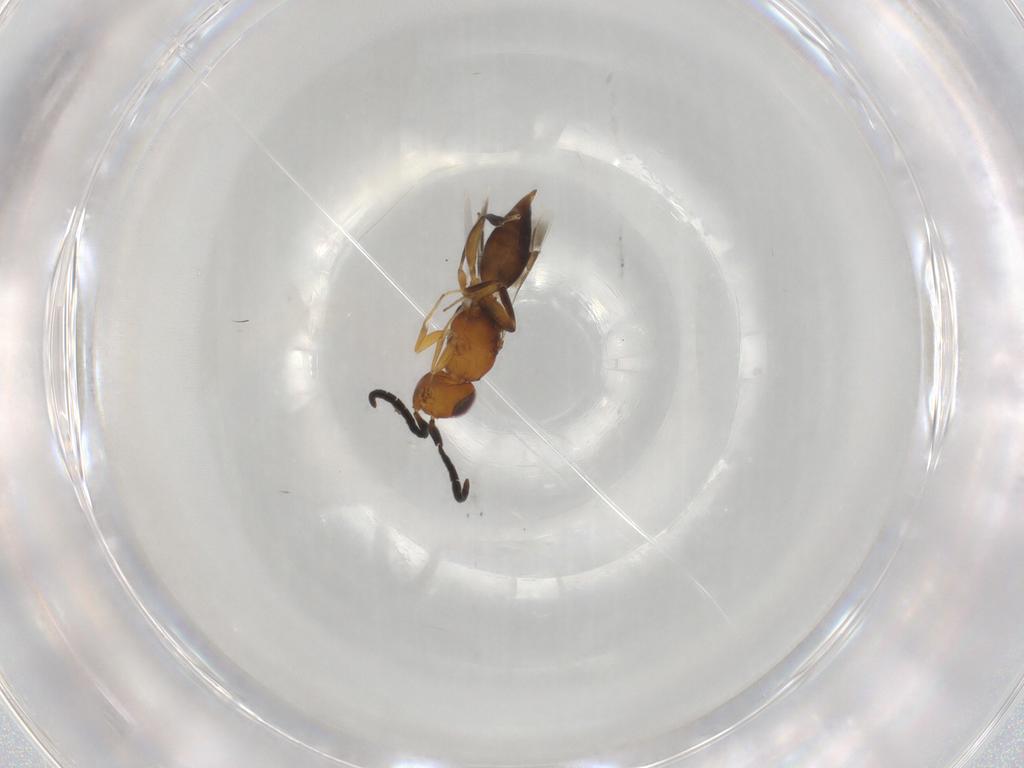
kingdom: Animalia
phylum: Arthropoda
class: Insecta
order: Hymenoptera
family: Megaspilidae
